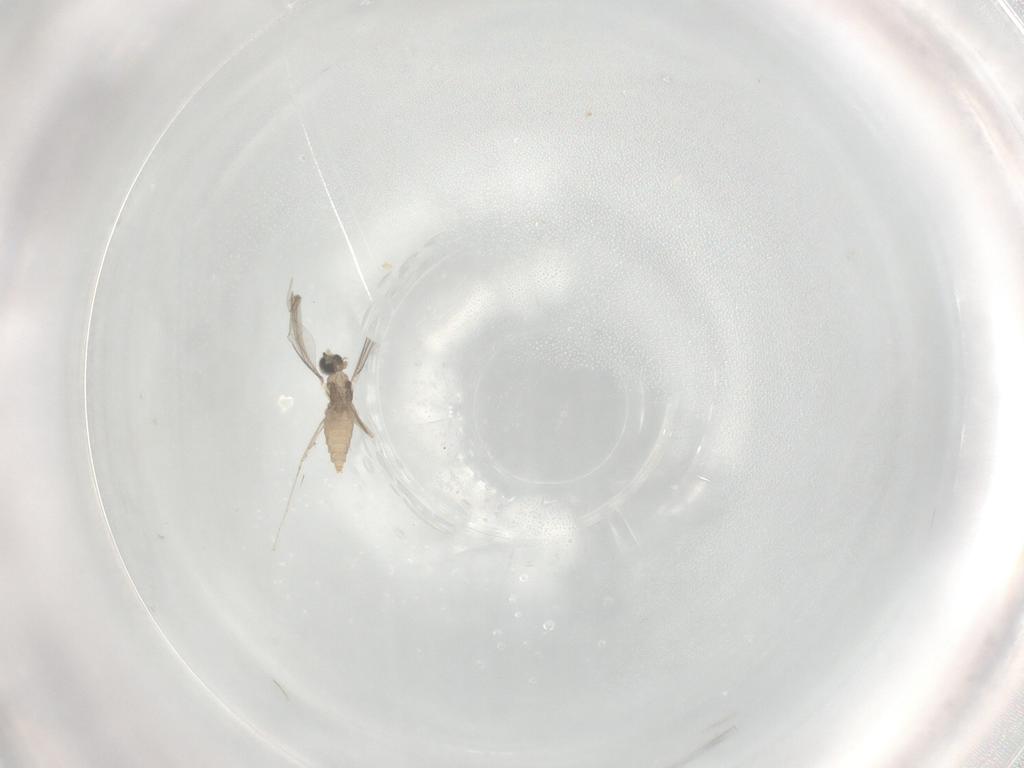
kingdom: Animalia
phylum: Arthropoda
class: Insecta
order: Diptera
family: Cecidomyiidae
